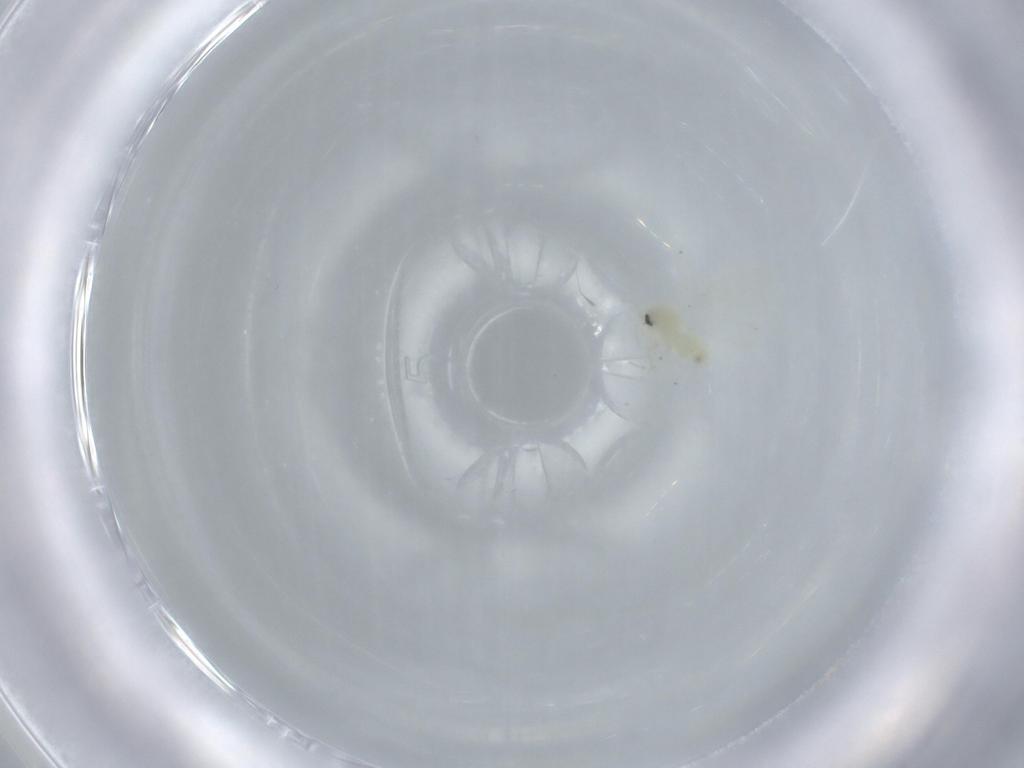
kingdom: Animalia
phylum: Arthropoda
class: Insecta
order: Hemiptera
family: Aleyrodidae
